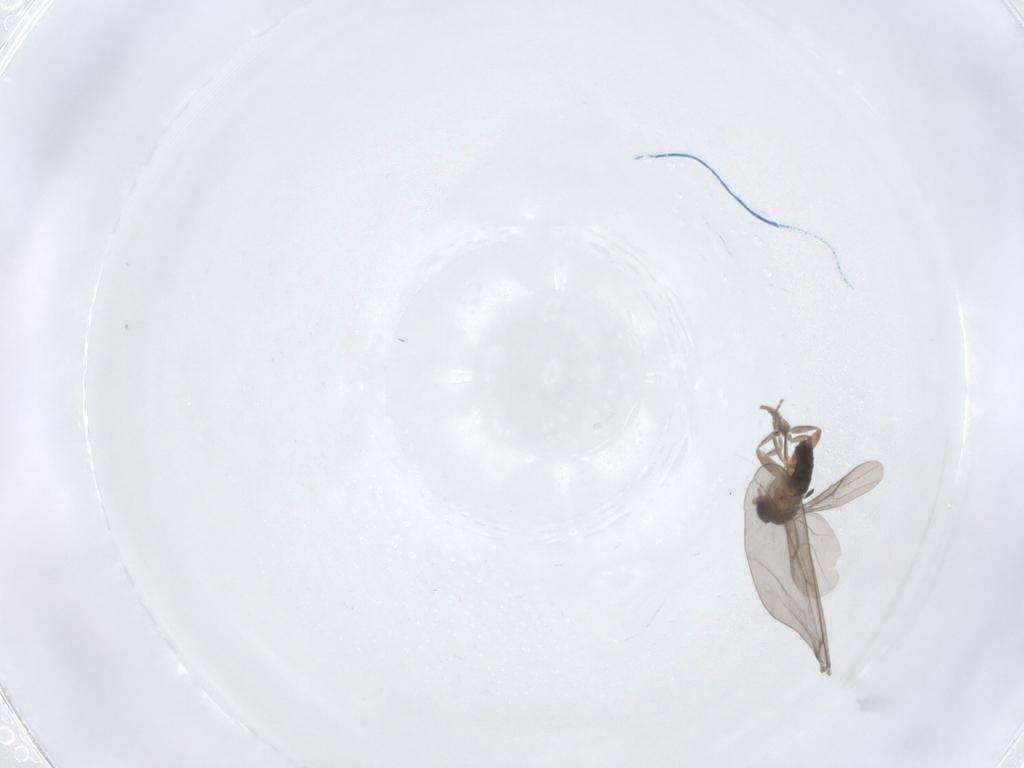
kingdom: Animalia
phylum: Arthropoda
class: Insecta
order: Diptera
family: Phoridae
